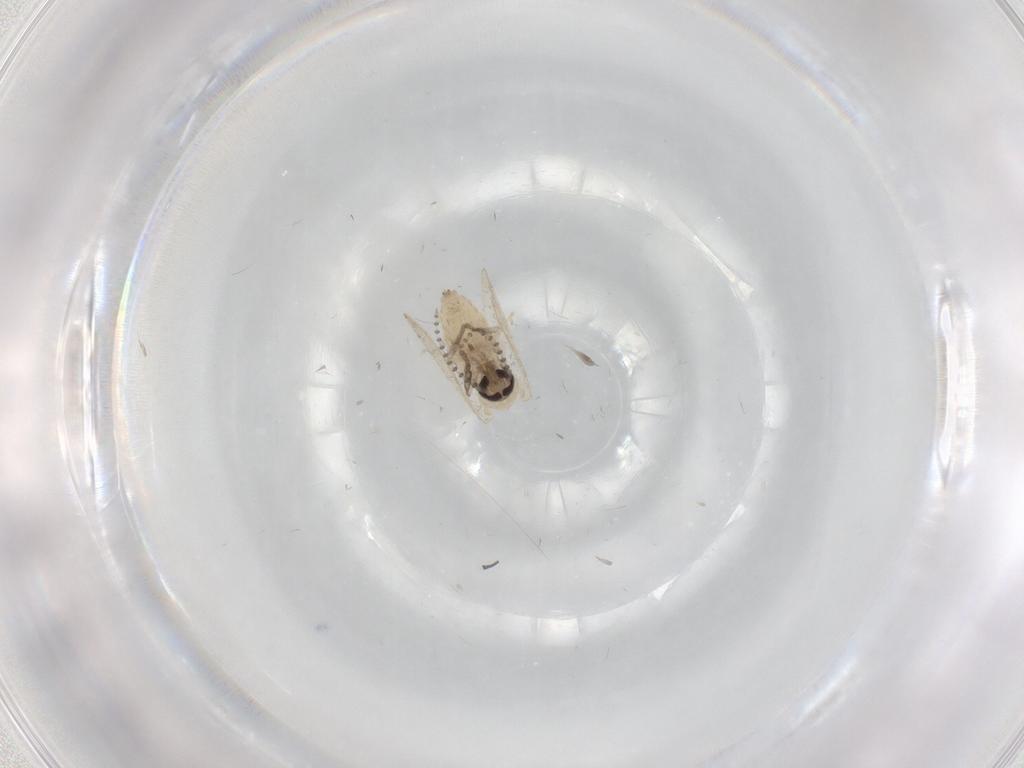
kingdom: Animalia
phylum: Arthropoda
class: Insecta
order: Diptera
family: Psychodidae
